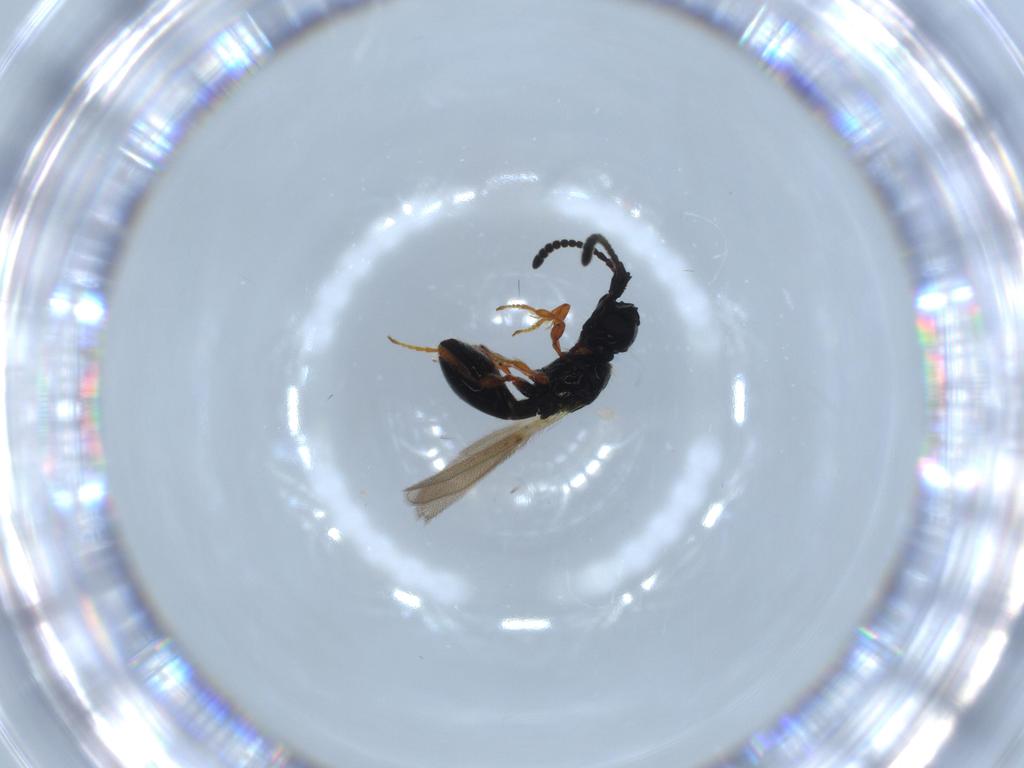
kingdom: Animalia
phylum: Arthropoda
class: Insecta
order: Hymenoptera
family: Diapriidae
